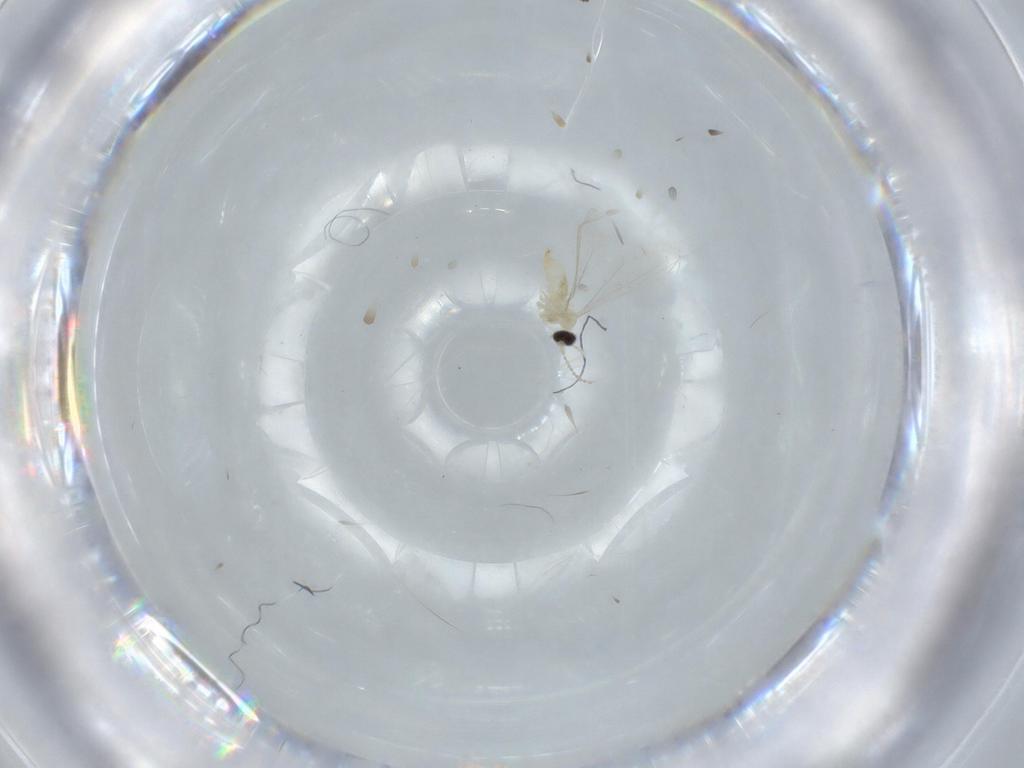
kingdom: Animalia
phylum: Arthropoda
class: Insecta
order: Diptera
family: Cecidomyiidae
